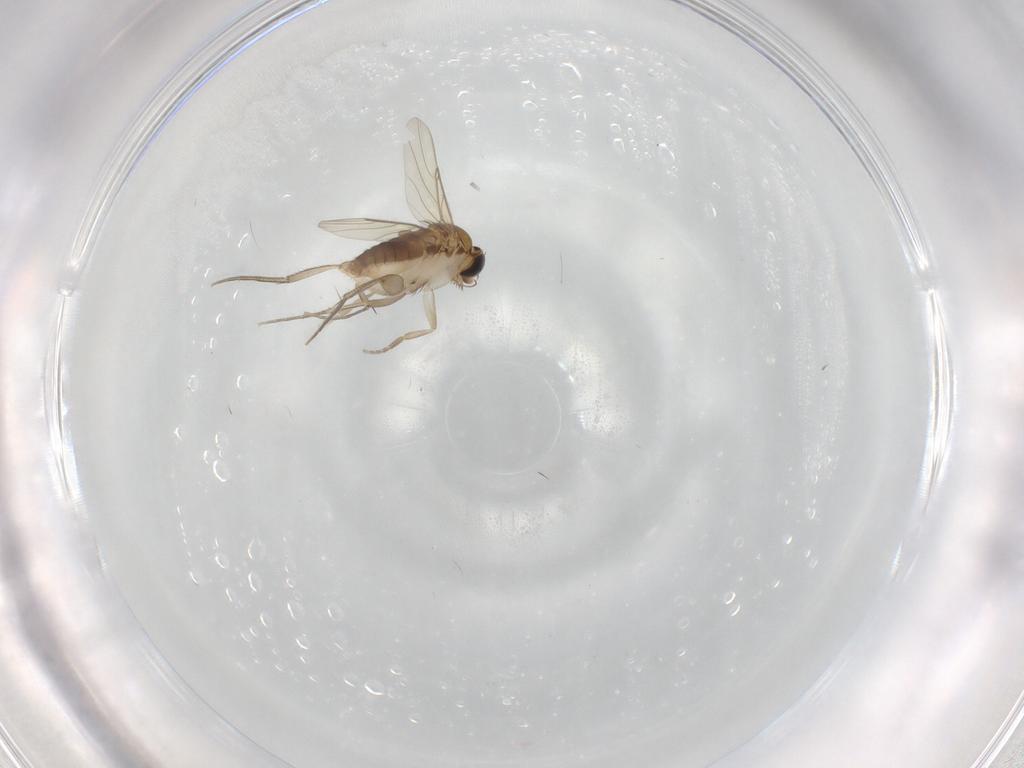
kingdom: Animalia
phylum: Arthropoda
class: Insecta
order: Diptera
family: Phoridae
